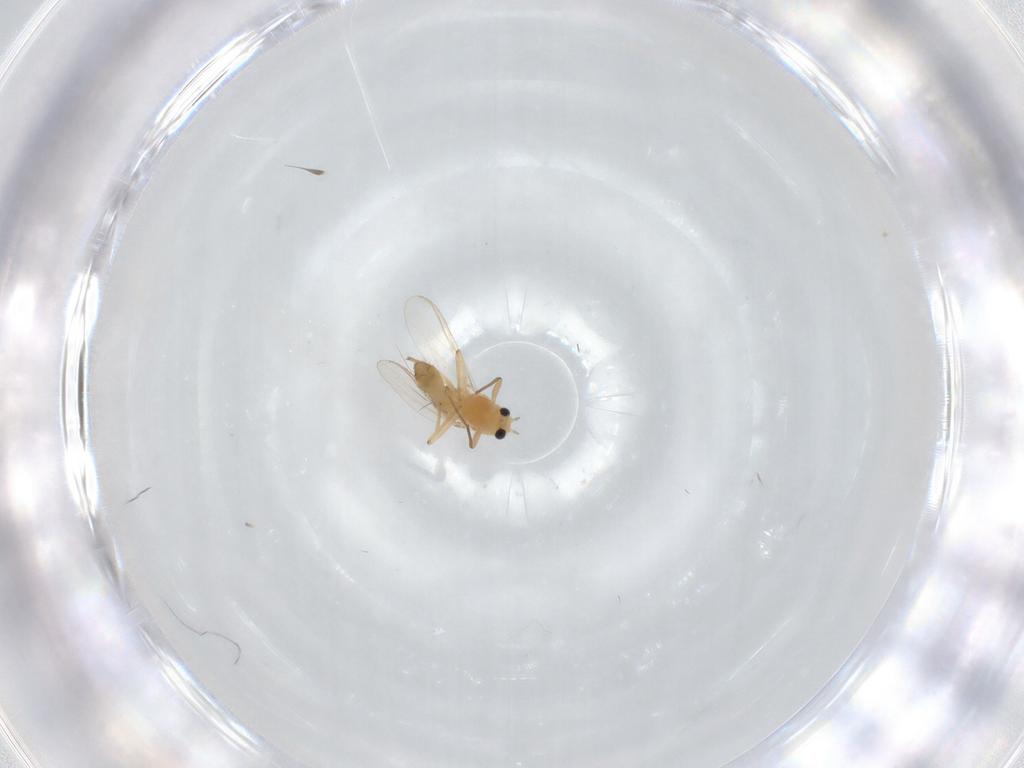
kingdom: Animalia
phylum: Arthropoda
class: Insecta
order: Diptera
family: Chironomidae
